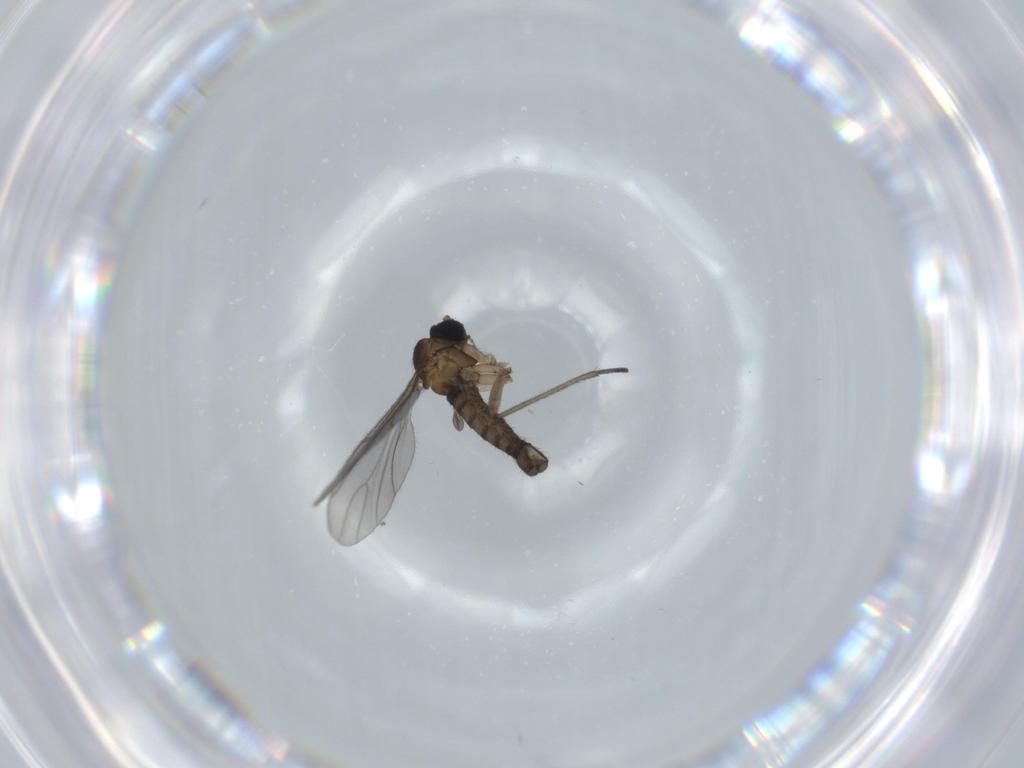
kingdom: Animalia
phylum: Arthropoda
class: Insecta
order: Diptera
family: Sciaridae
